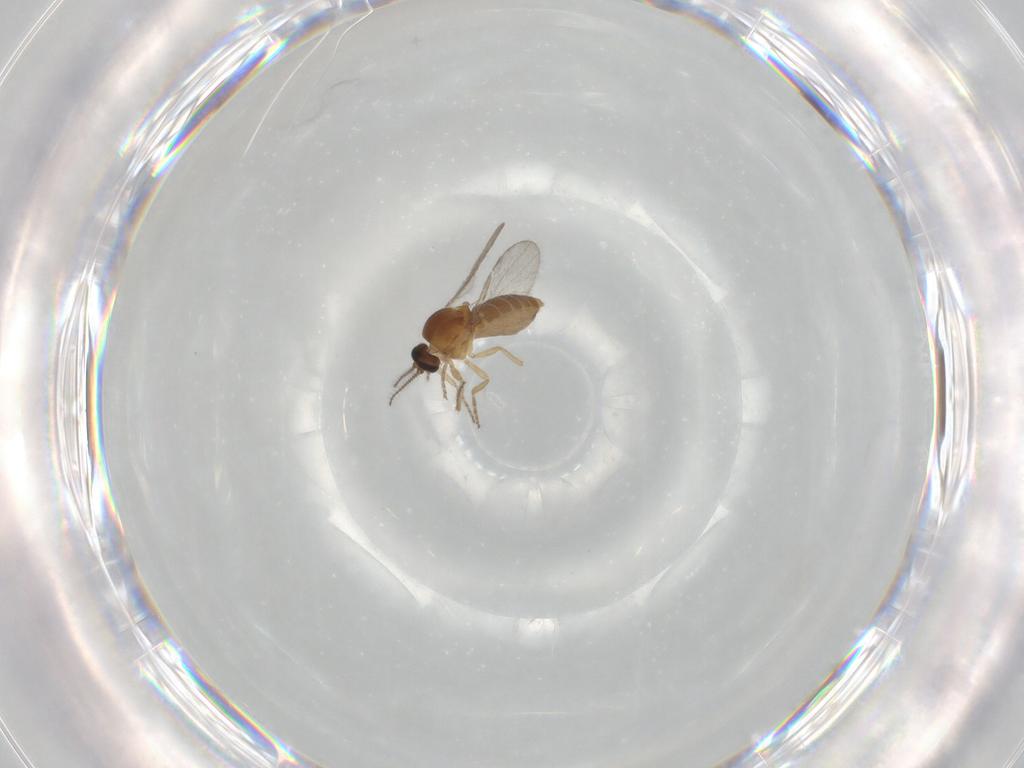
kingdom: Animalia
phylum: Arthropoda
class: Insecta
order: Diptera
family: Ceratopogonidae
